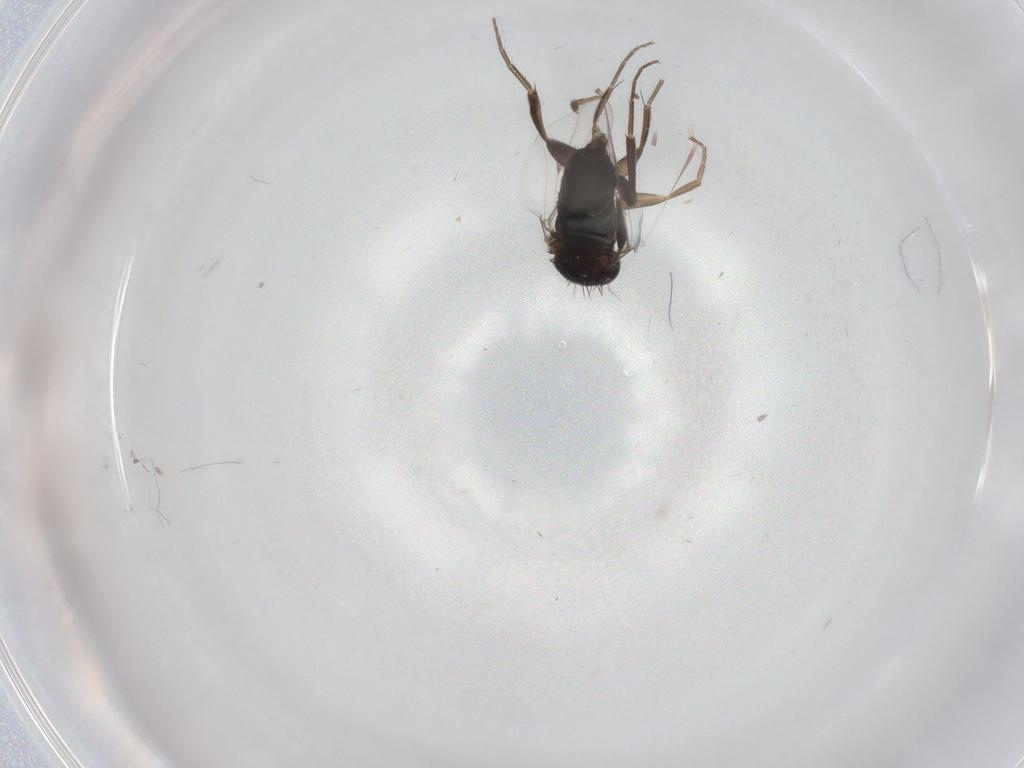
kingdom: Animalia
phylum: Arthropoda
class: Insecta
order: Diptera
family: Phoridae
